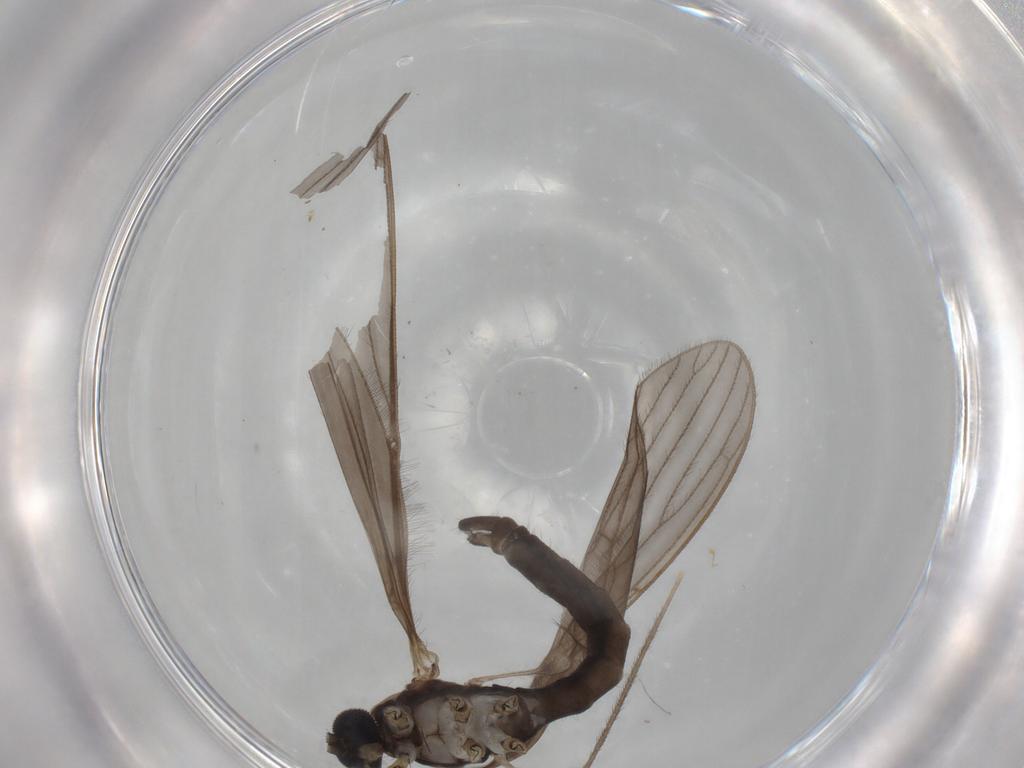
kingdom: Animalia
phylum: Arthropoda
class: Insecta
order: Diptera
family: Chironomidae
